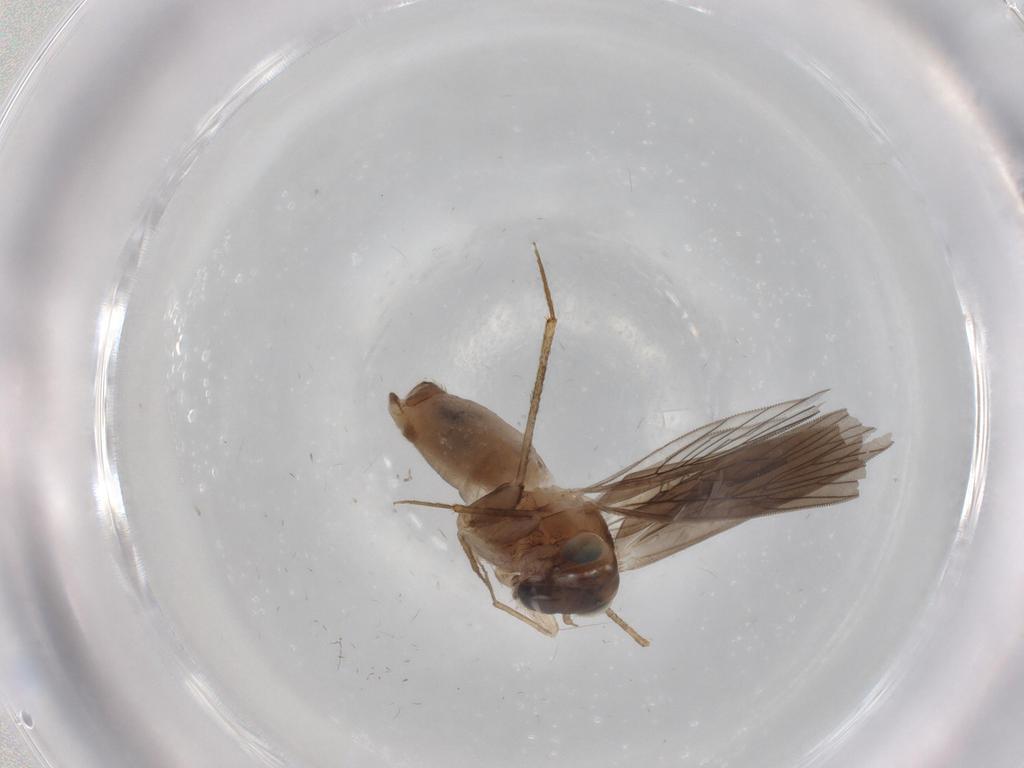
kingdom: Animalia
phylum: Arthropoda
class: Insecta
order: Psocodea
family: Lepidopsocidae
